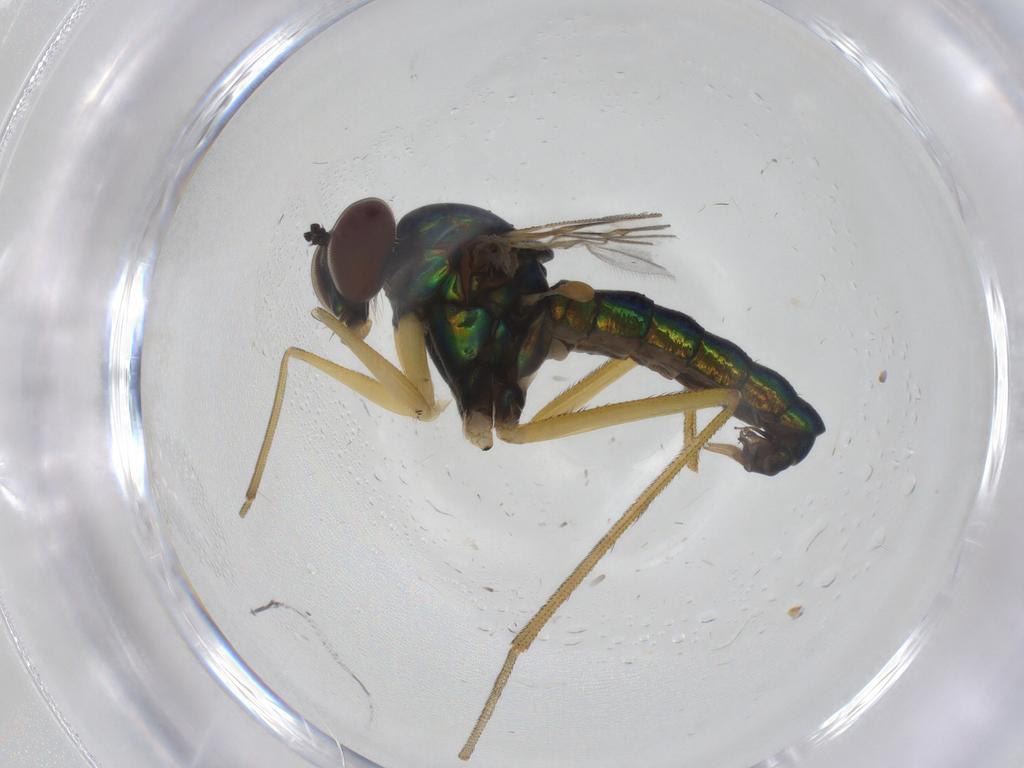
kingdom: Animalia
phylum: Arthropoda
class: Insecta
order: Diptera
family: Dolichopodidae
